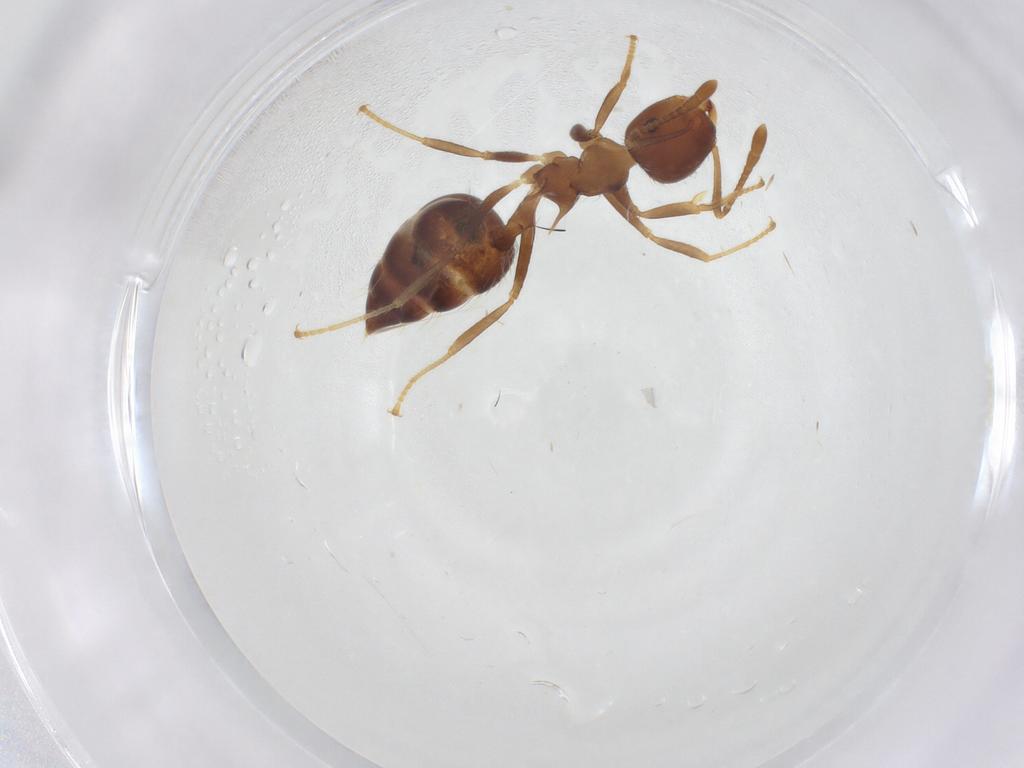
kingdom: Animalia
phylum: Arthropoda
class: Insecta
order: Hymenoptera
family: Formicidae
